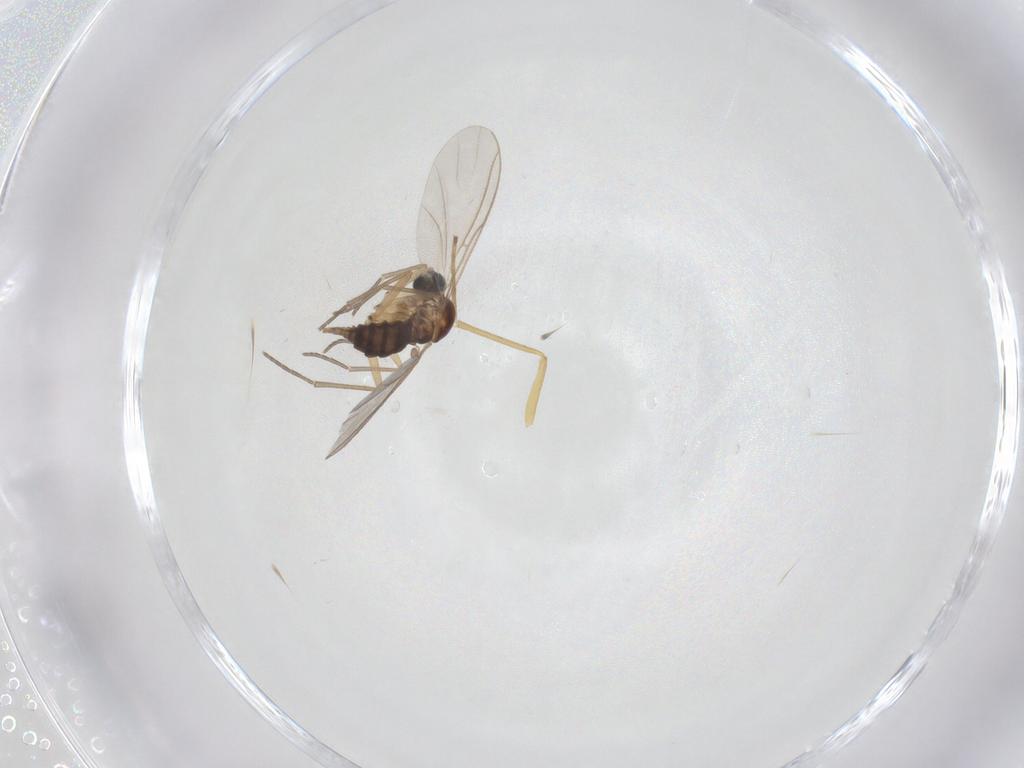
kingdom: Animalia
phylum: Arthropoda
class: Insecta
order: Diptera
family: Sciaridae
